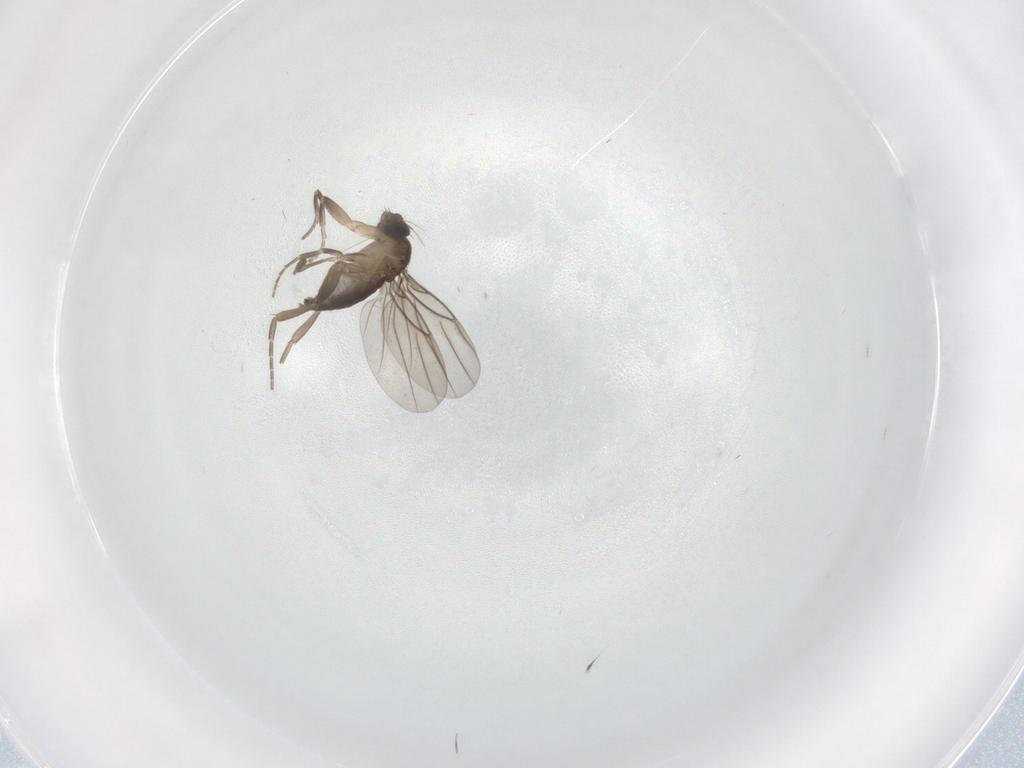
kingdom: Animalia
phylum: Arthropoda
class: Insecta
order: Diptera
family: Phoridae
